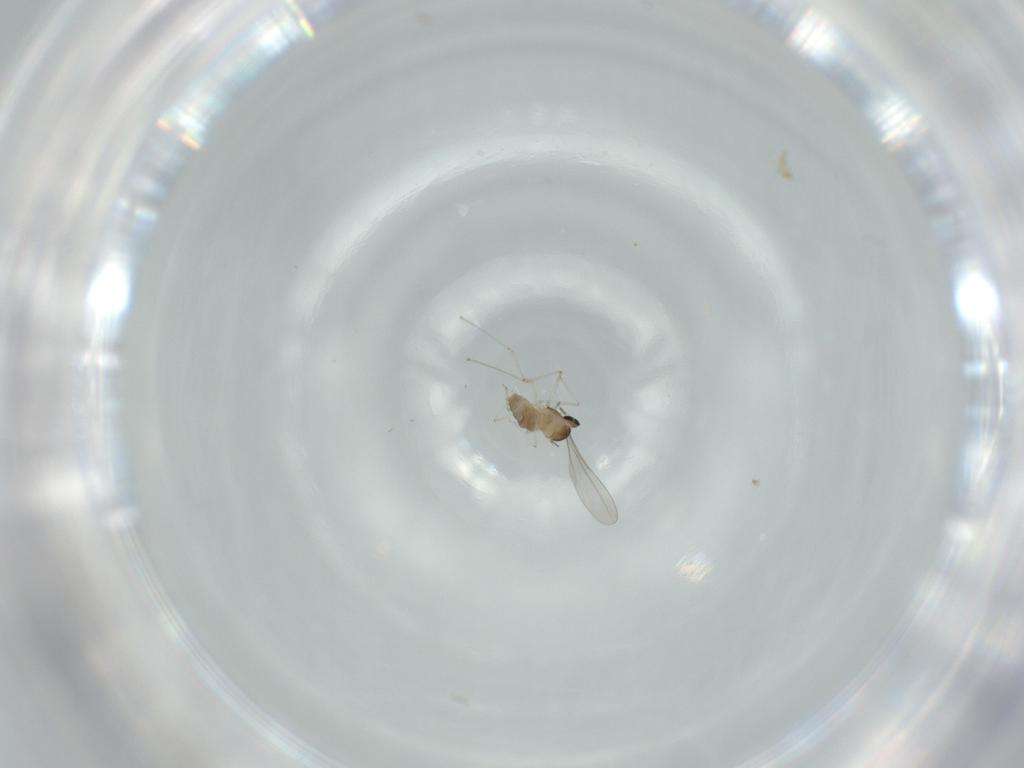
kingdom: Animalia
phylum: Arthropoda
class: Insecta
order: Diptera
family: Cecidomyiidae
